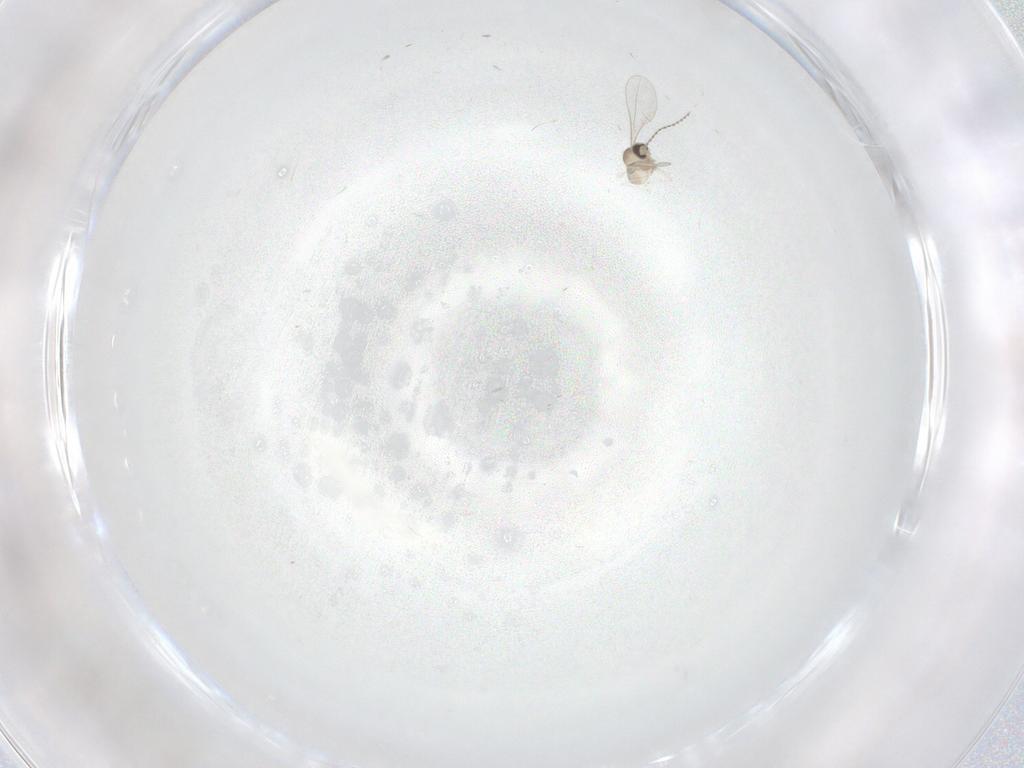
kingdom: Animalia
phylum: Arthropoda
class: Insecta
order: Diptera
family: Cecidomyiidae
